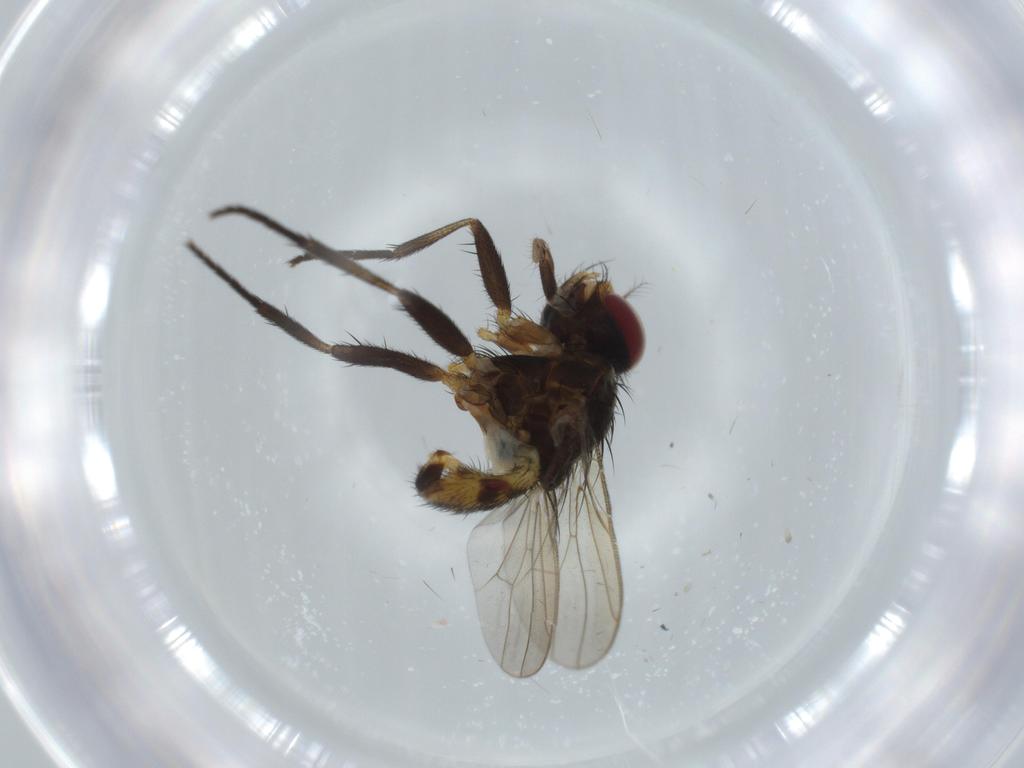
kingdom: Animalia
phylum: Arthropoda
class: Insecta
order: Diptera
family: Anthomyiidae
